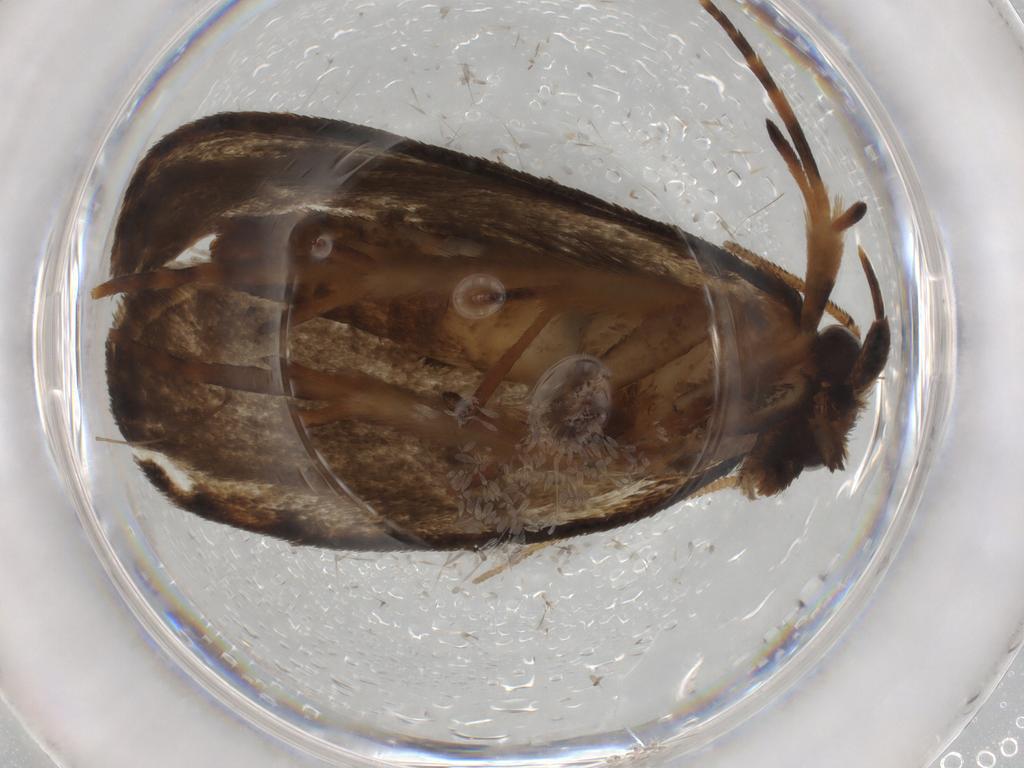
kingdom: Animalia
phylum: Arthropoda
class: Insecta
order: Lepidoptera
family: Tineidae
